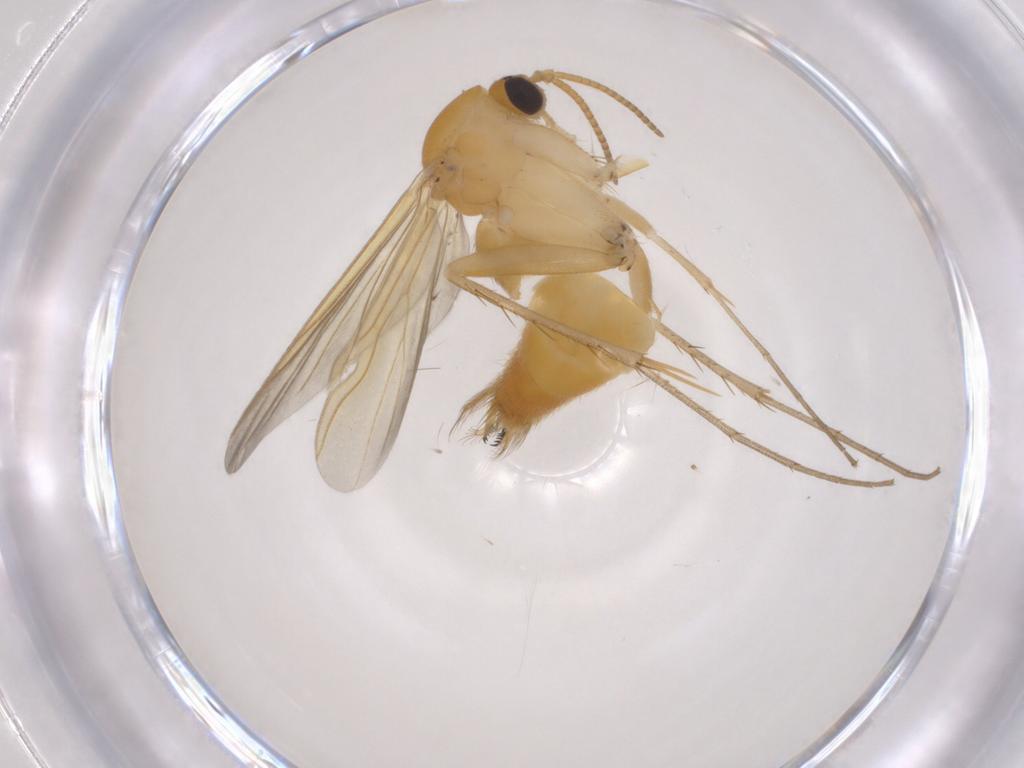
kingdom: Animalia
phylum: Arthropoda
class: Insecta
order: Diptera
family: Mycetophilidae
